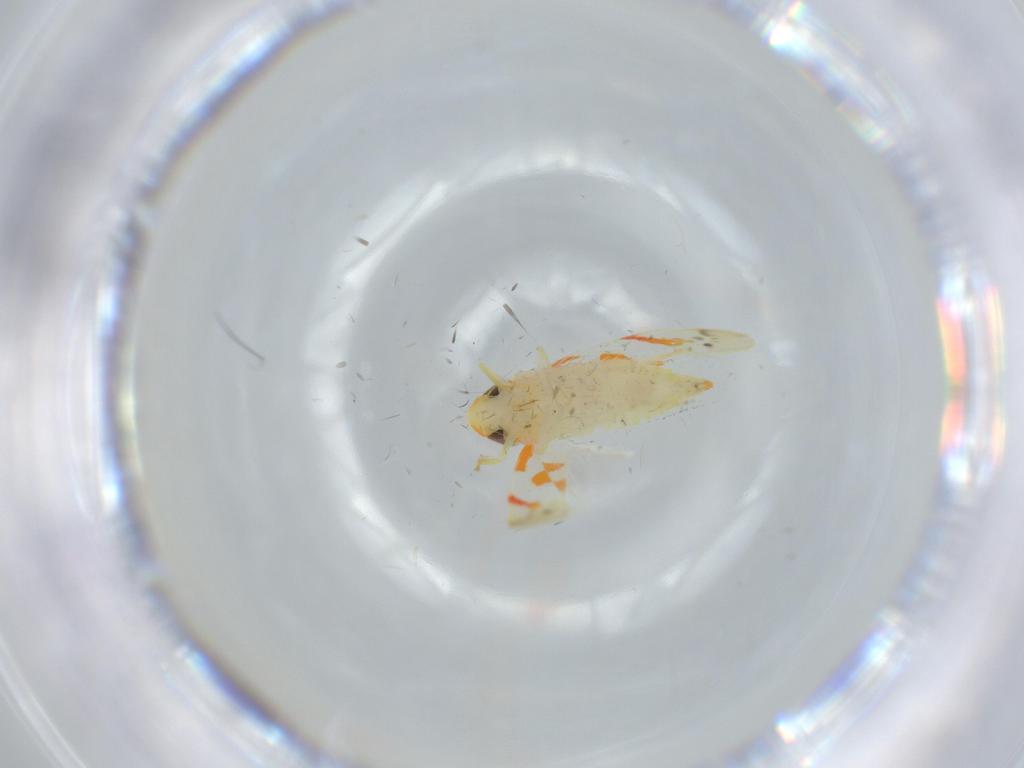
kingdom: Animalia
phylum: Arthropoda
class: Insecta
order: Hemiptera
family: Cicadellidae
